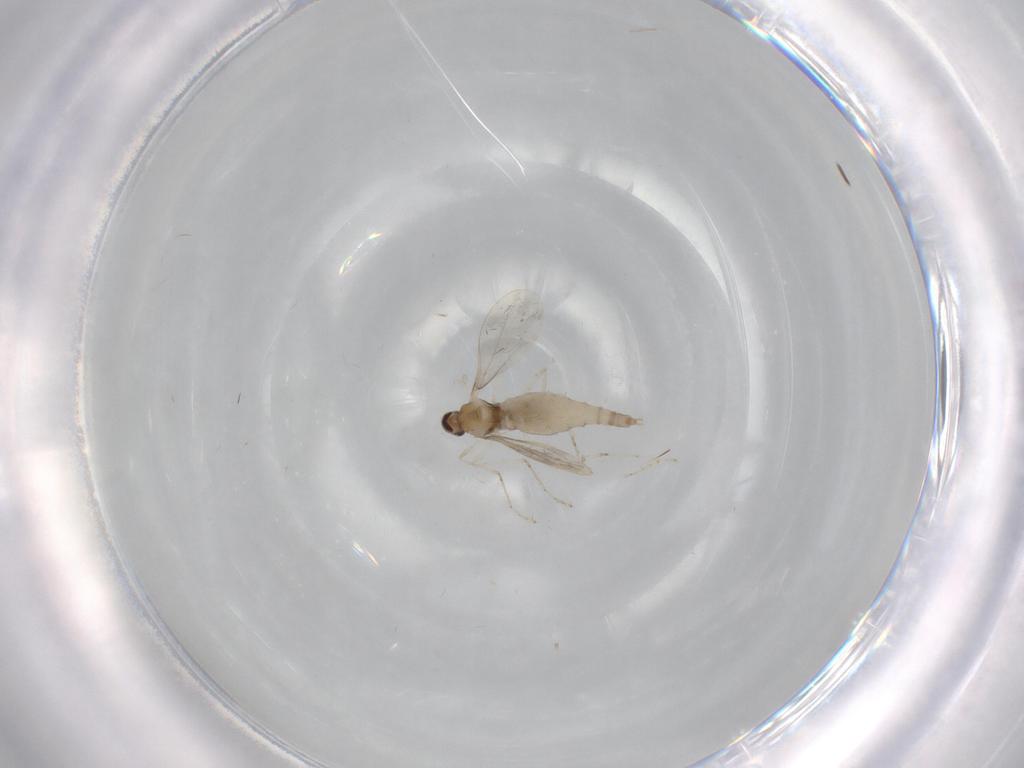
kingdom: Animalia
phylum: Arthropoda
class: Insecta
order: Diptera
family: Cecidomyiidae
